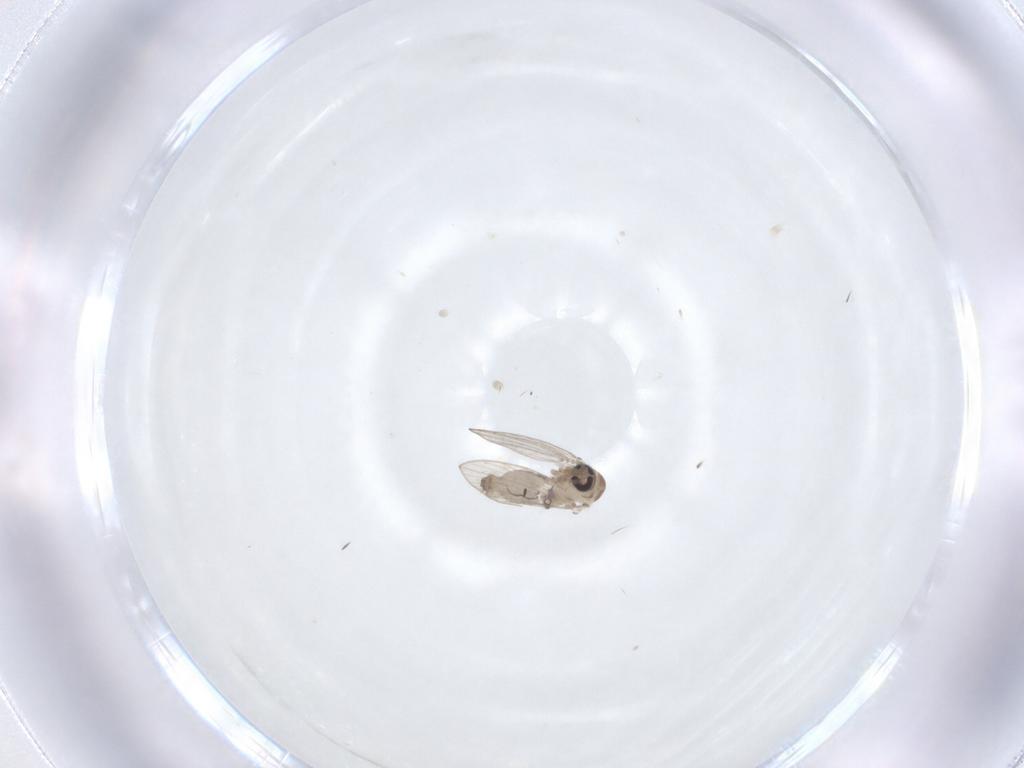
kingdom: Animalia
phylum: Arthropoda
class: Insecta
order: Diptera
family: Psychodidae
